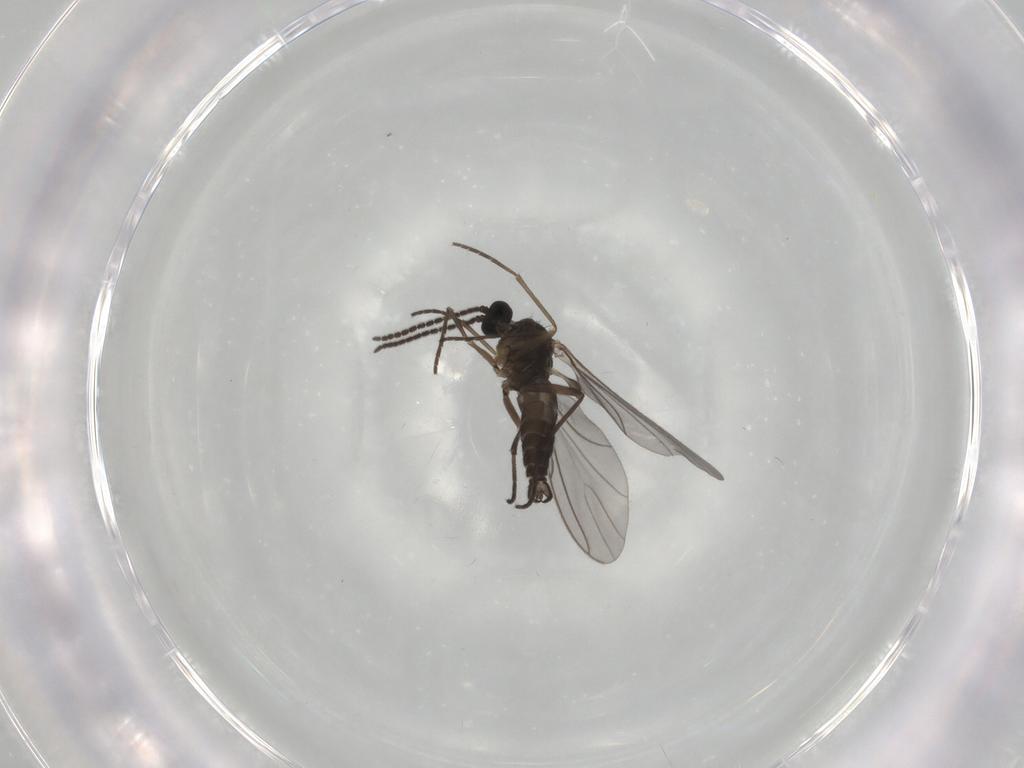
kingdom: Animalia
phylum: Arthropoda
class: Insecta
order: Diptera
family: Sciaridae
